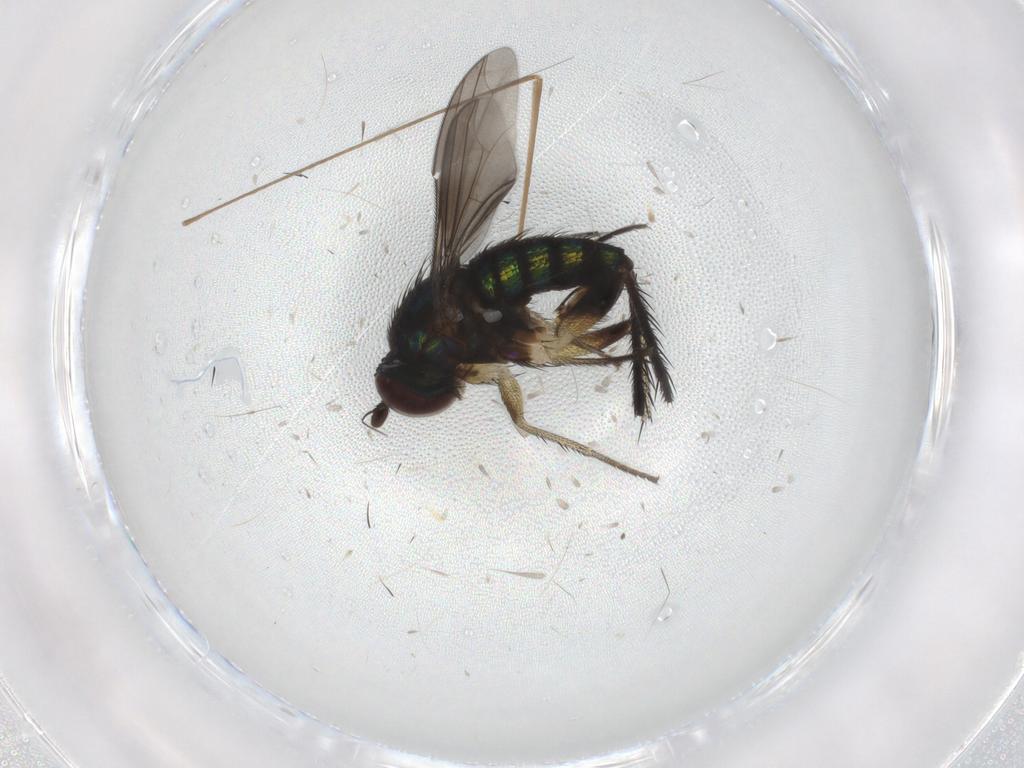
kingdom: Animalia
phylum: Arthropoda
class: Insecta
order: Diptera
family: Dolichopodidae
